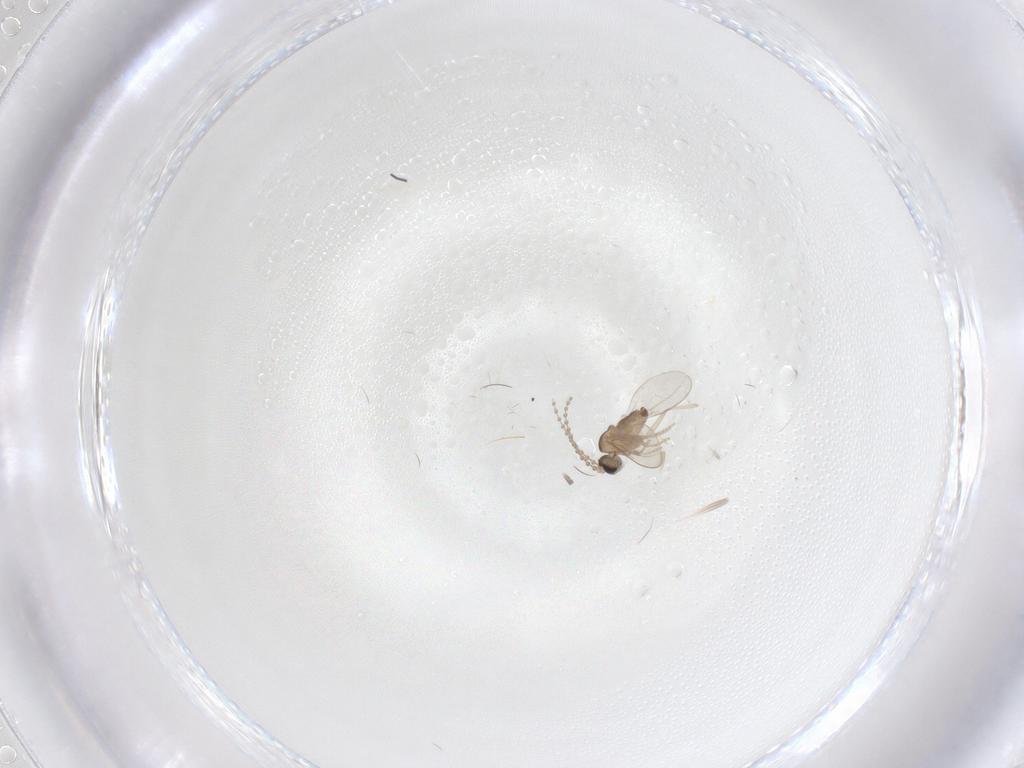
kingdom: Animalia
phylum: Arthropoda
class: Insecta
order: Diptera
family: Cecidomyiidae
